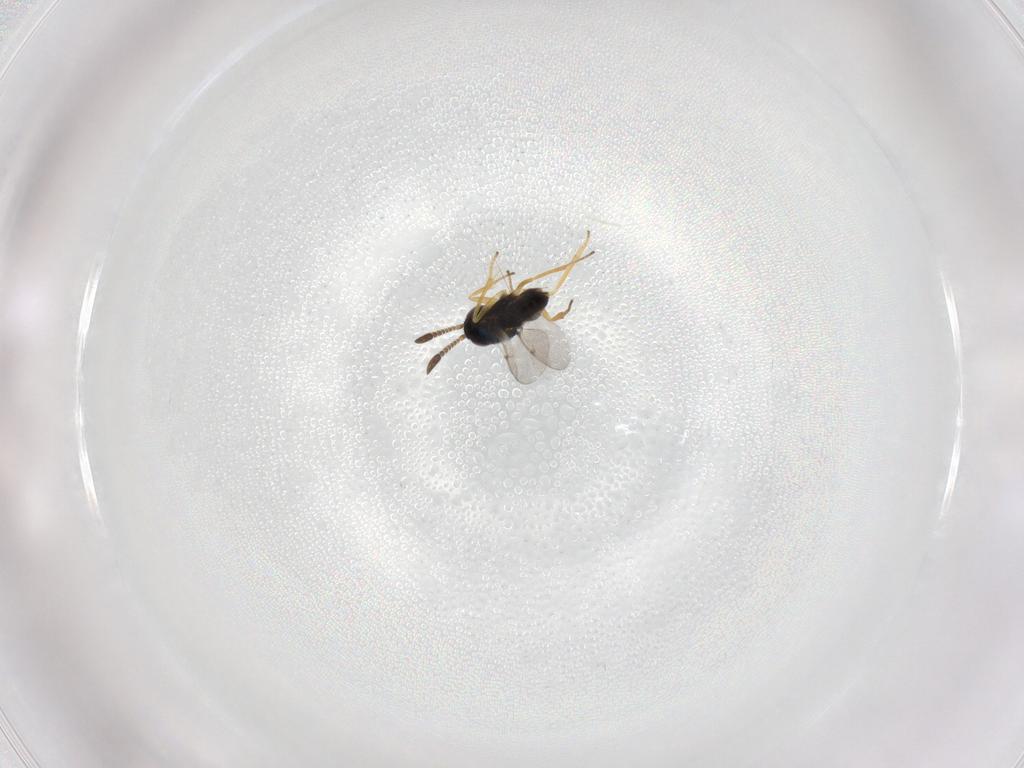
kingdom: Animalia
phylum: Arthropoda
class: Insecta
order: Hymenoptera
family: Encyrtidae
